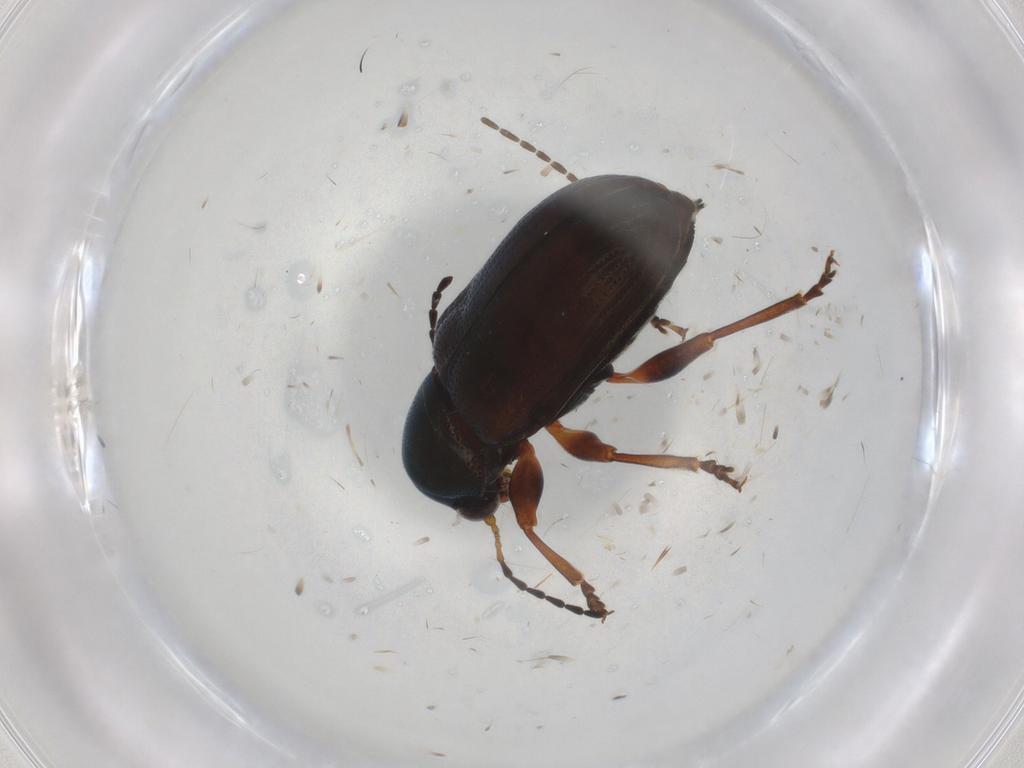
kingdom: Animalia
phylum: Arthropoda
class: Insecta
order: Coleoptera
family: Chrysomelidae
